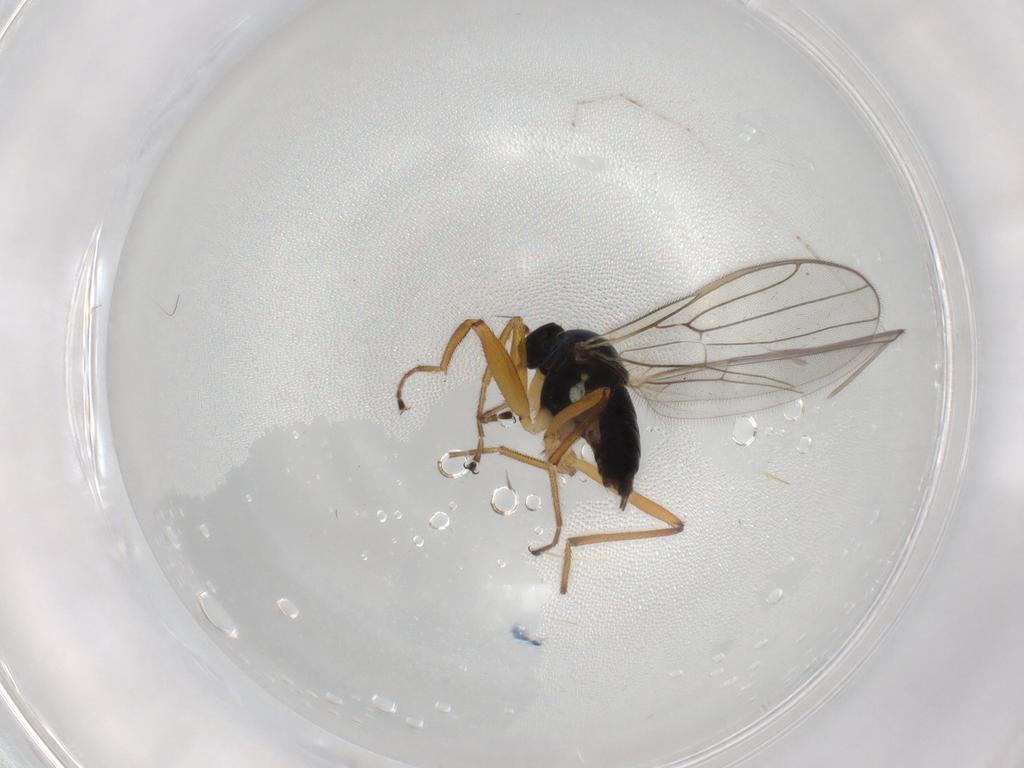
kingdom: Animalia
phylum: Arthropoda
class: Insecta
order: Diptera
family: Hybotidae
